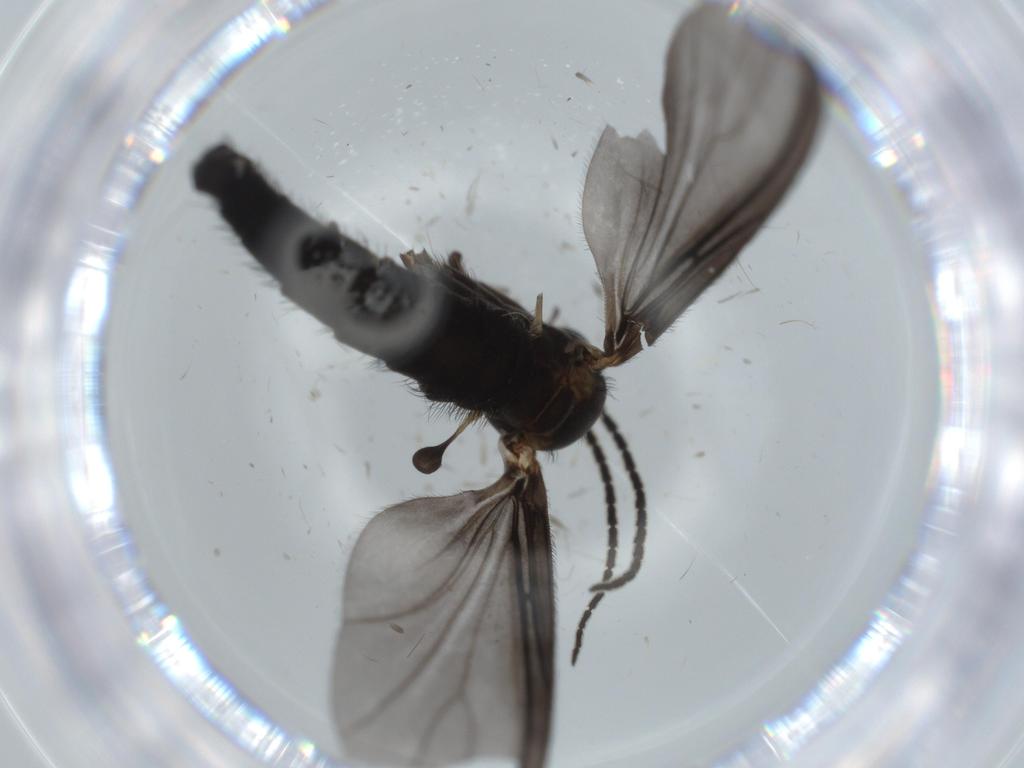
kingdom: Animalia
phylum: Arthropoda
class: Insecta
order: Diptera
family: Sciaridae
